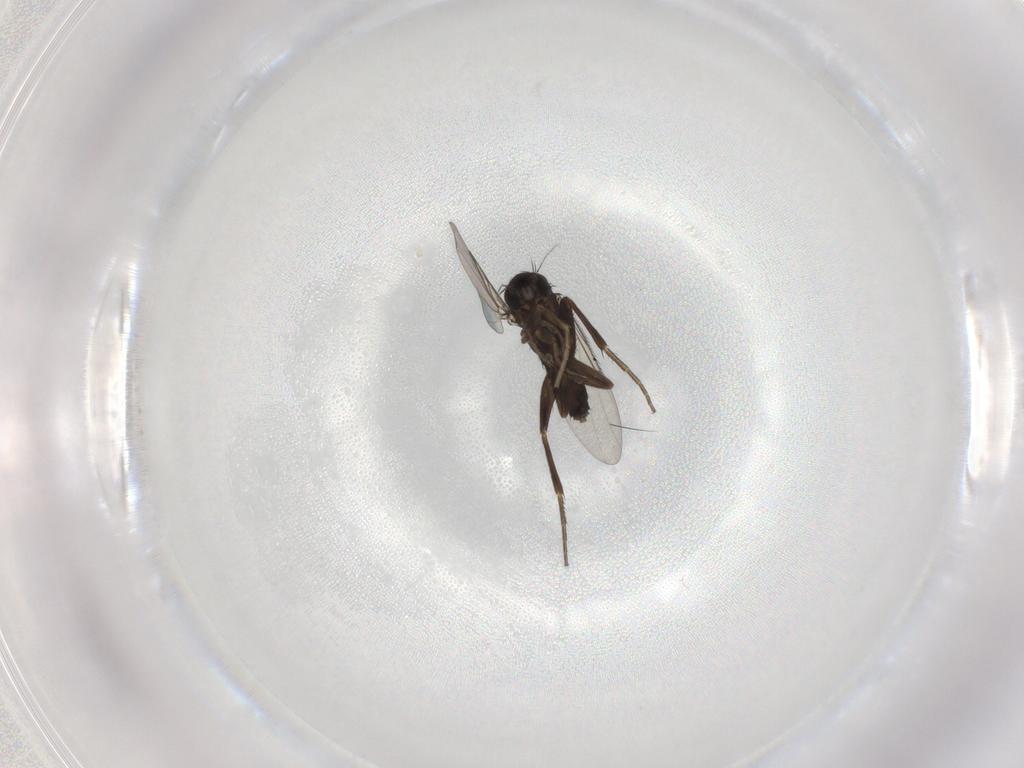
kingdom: Animalia
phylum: Arthropoda
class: Insecta
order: Diptera
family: Phoridae
